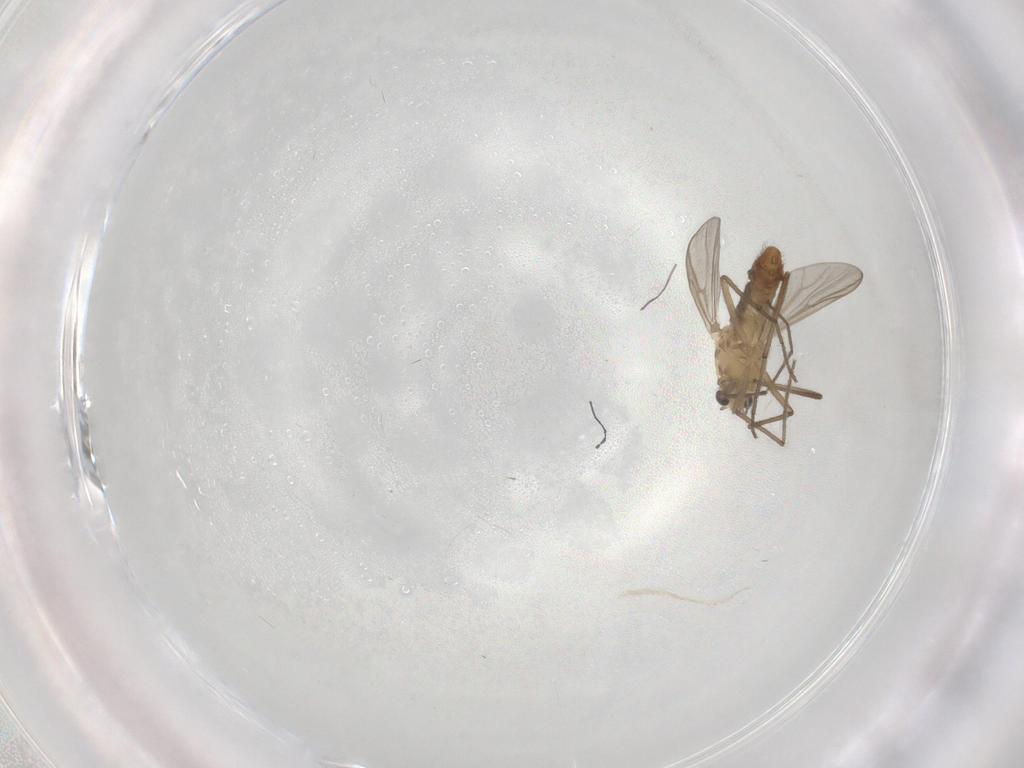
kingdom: Animalia
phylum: Arthropoda
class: Insecta
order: Diptera
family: Chironomidae
